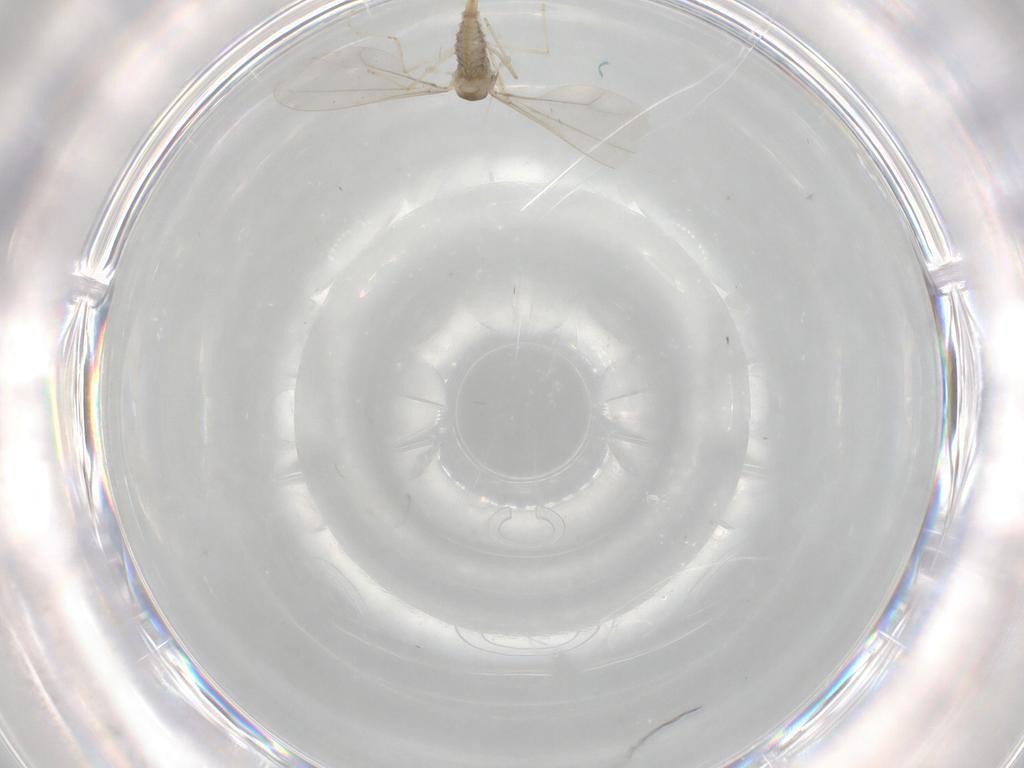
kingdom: Animalia
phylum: Arthropoda
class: Insecta
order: Diptera
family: Cecidomyiidae
